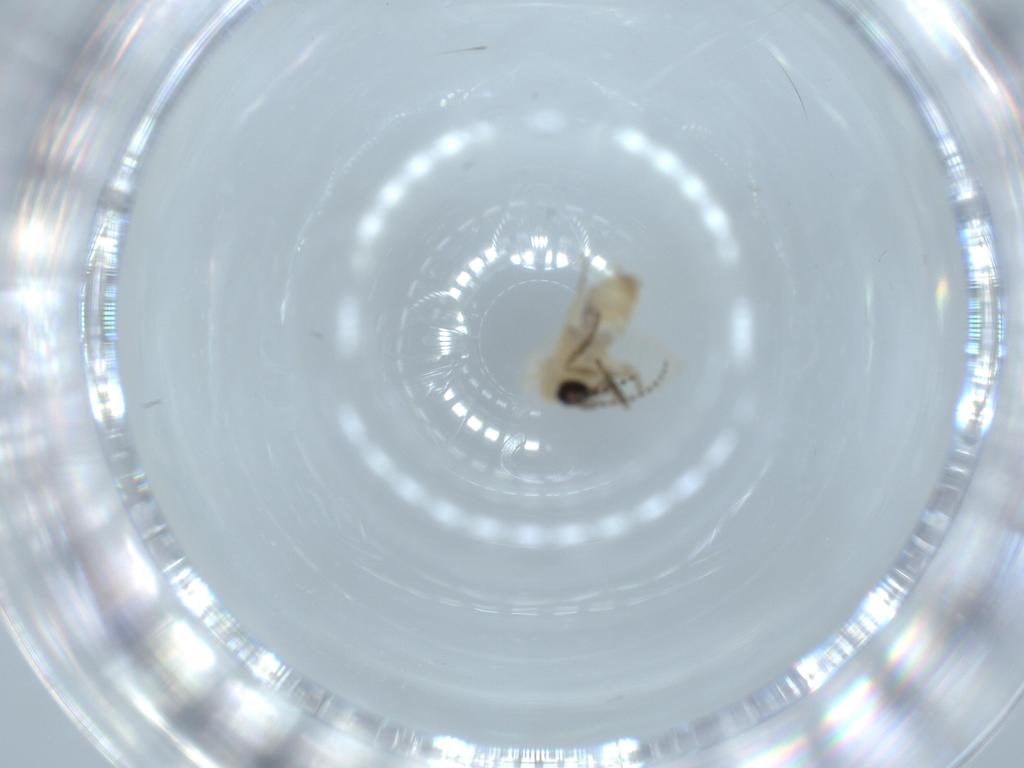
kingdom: Animalia
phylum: Arthropoda
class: Insecta
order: Diptera
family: Psychodidae
